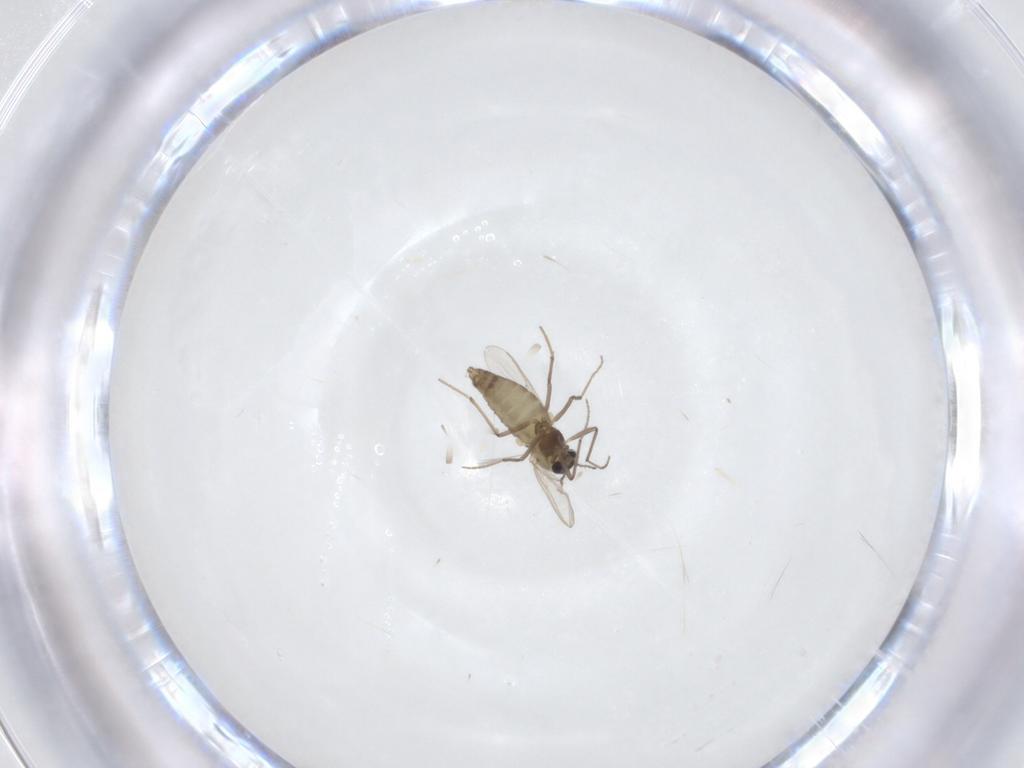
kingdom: Animalia
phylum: Arthropoda
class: Insecta
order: Diptera
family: Chironomidae
